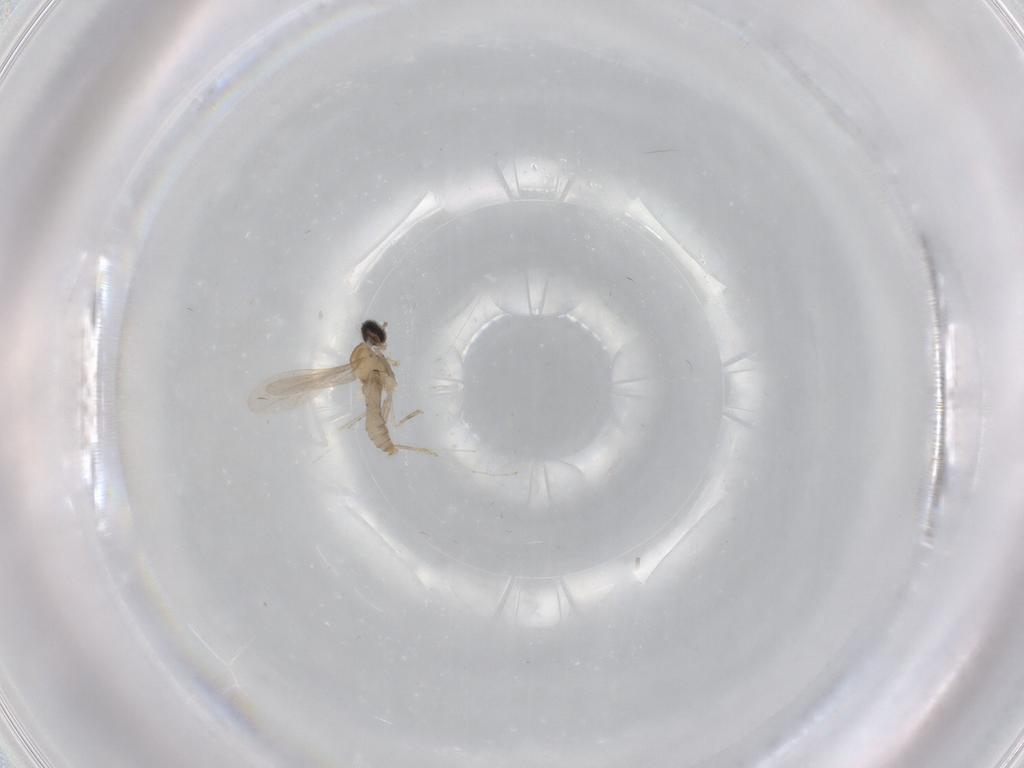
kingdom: Animalia
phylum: Arthropoda
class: Insecta
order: Diptera
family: Cecidomyiidae
